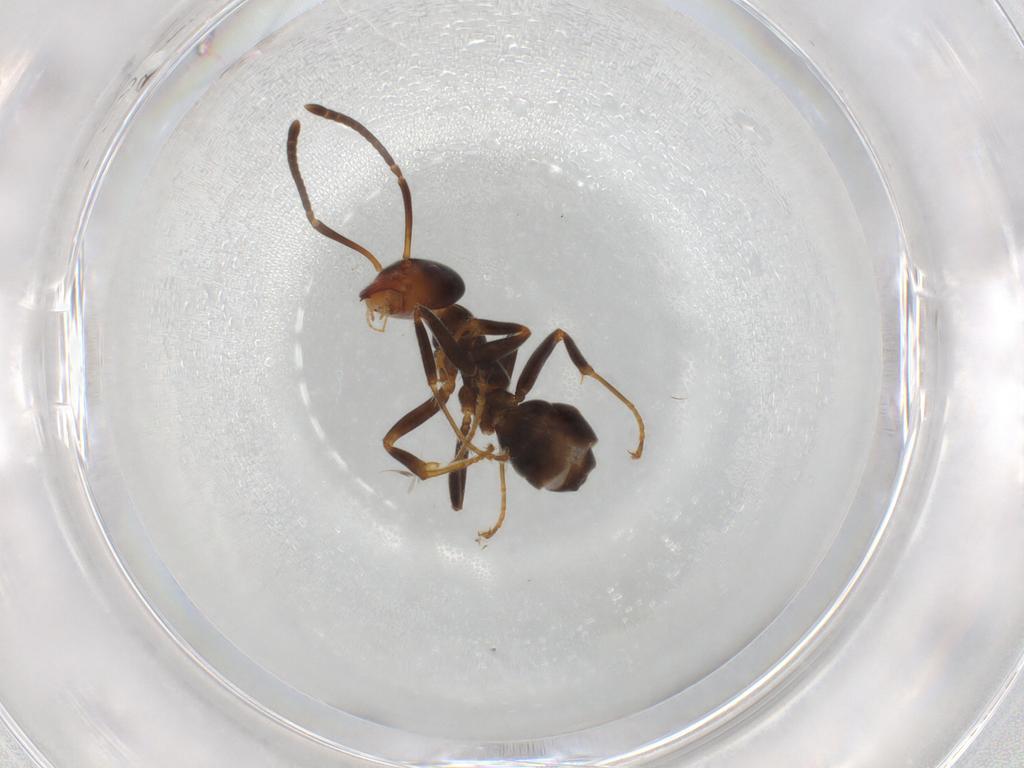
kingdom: Animalia
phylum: Arthropoda
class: Insecta
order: Hymenoptera
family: Formicidae
